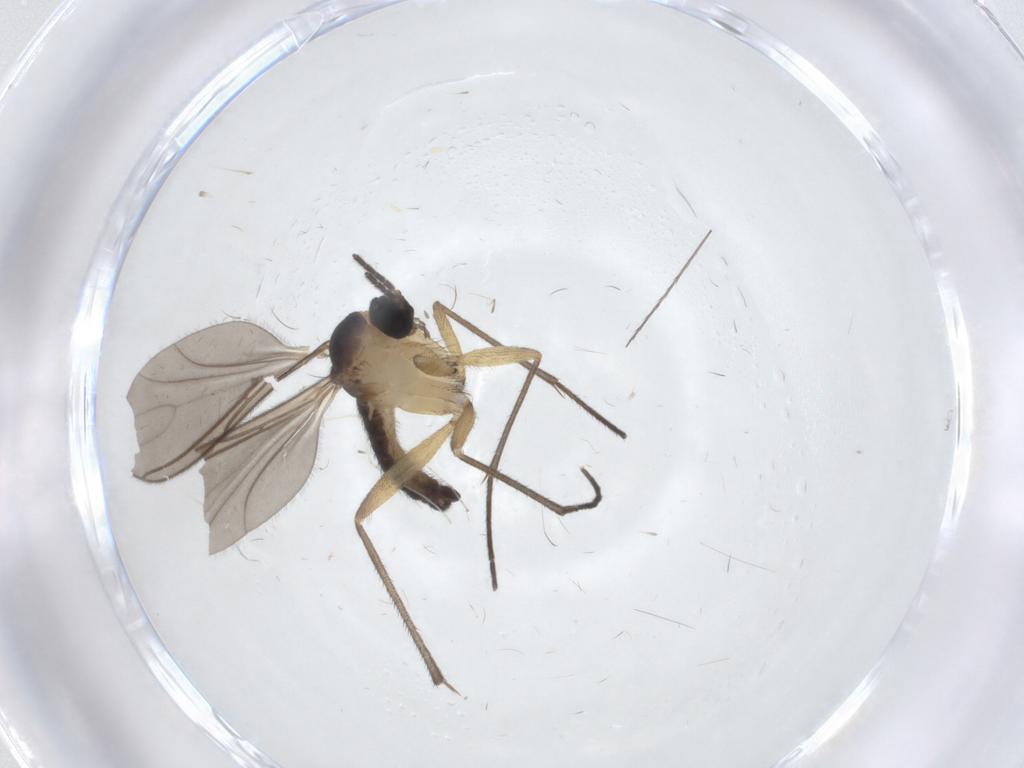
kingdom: Animalia
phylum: Arthropoda
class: Insecta
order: Diptera
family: Sciaridae
